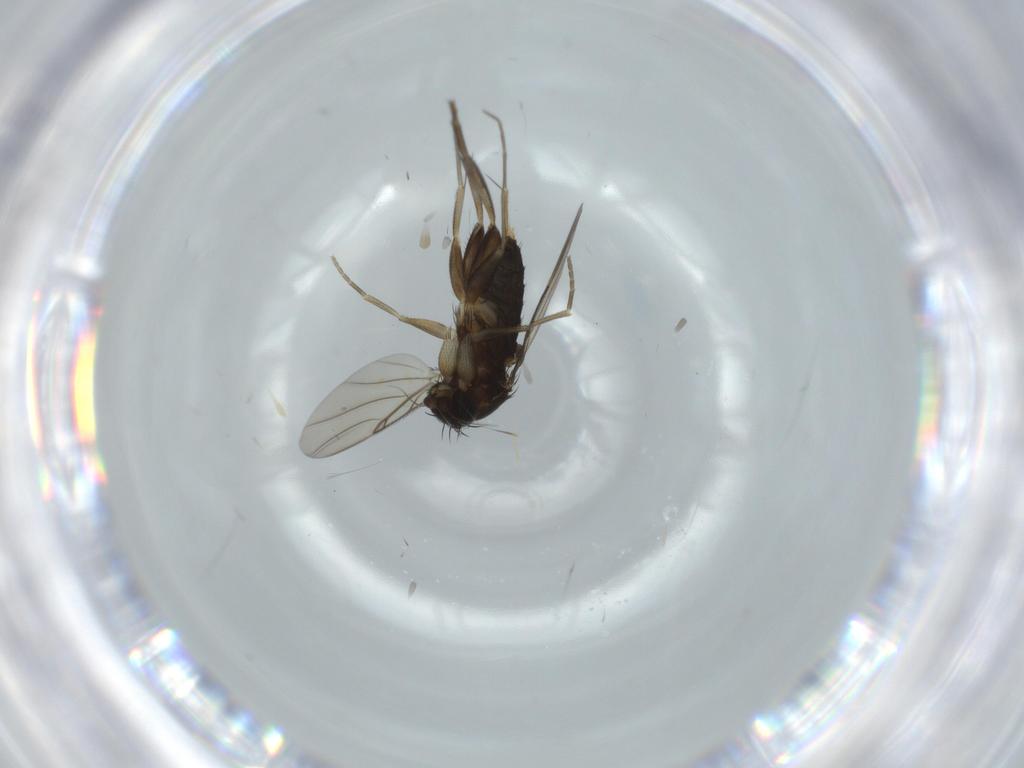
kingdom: Animalia
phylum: Arthropoda
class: Insecta
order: Diptera
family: Phoridae
